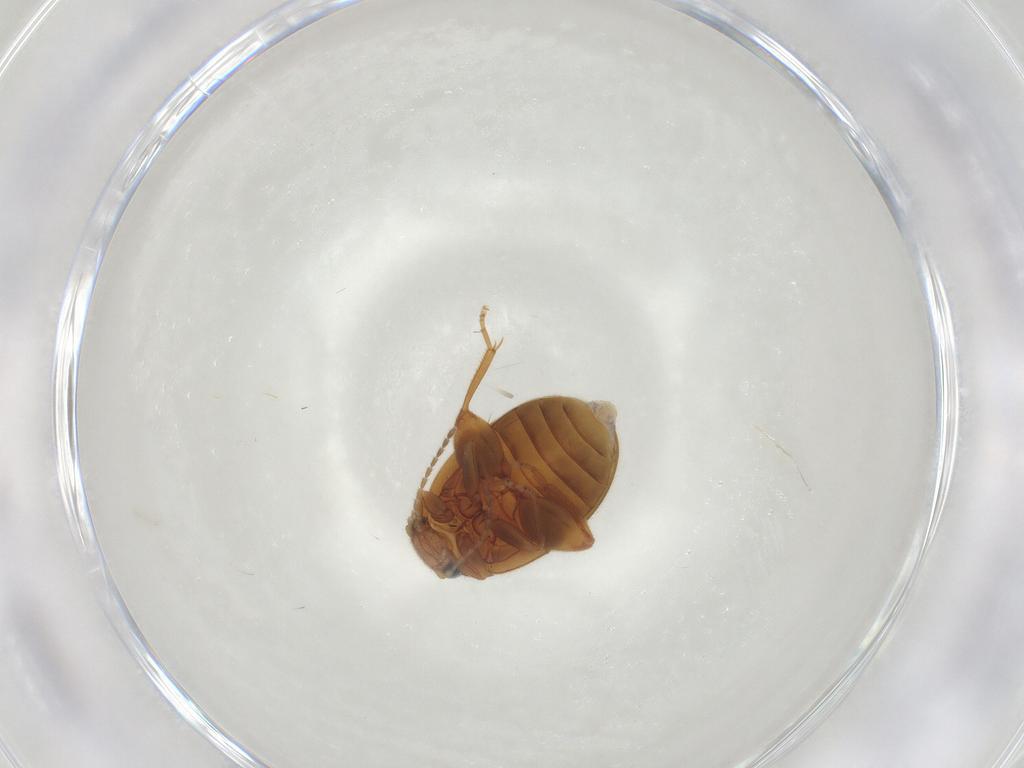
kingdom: Animalia
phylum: Arthropoda
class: Insecta
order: Coleoptera
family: Scirtidae
